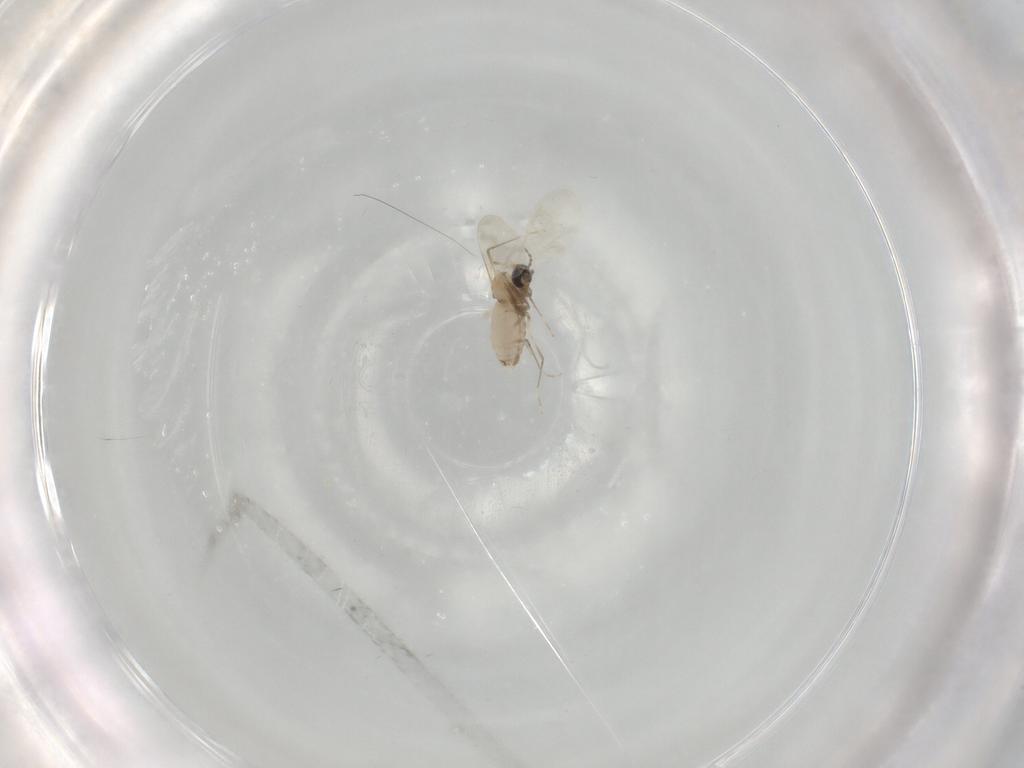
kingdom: Animalia
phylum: Arthropoda
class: Insecta
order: Diptera
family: Cecidomyiidae
